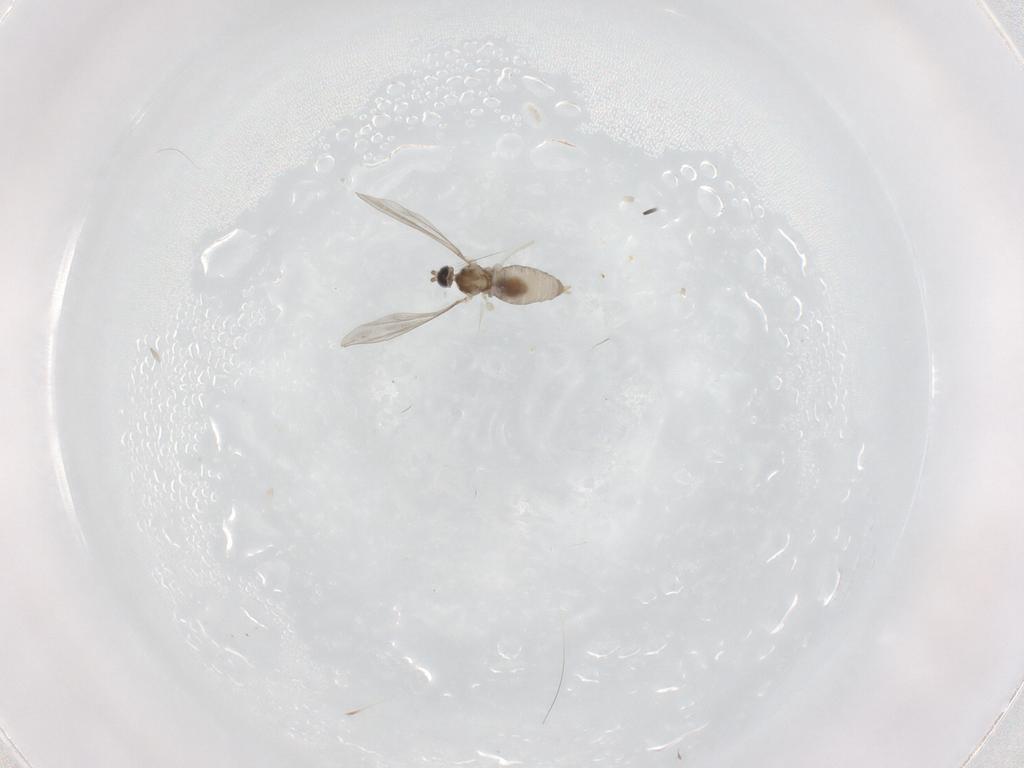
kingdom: Animalia
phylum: Arthropoda
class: Insecta
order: Diptera
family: Cecidomyiidae
